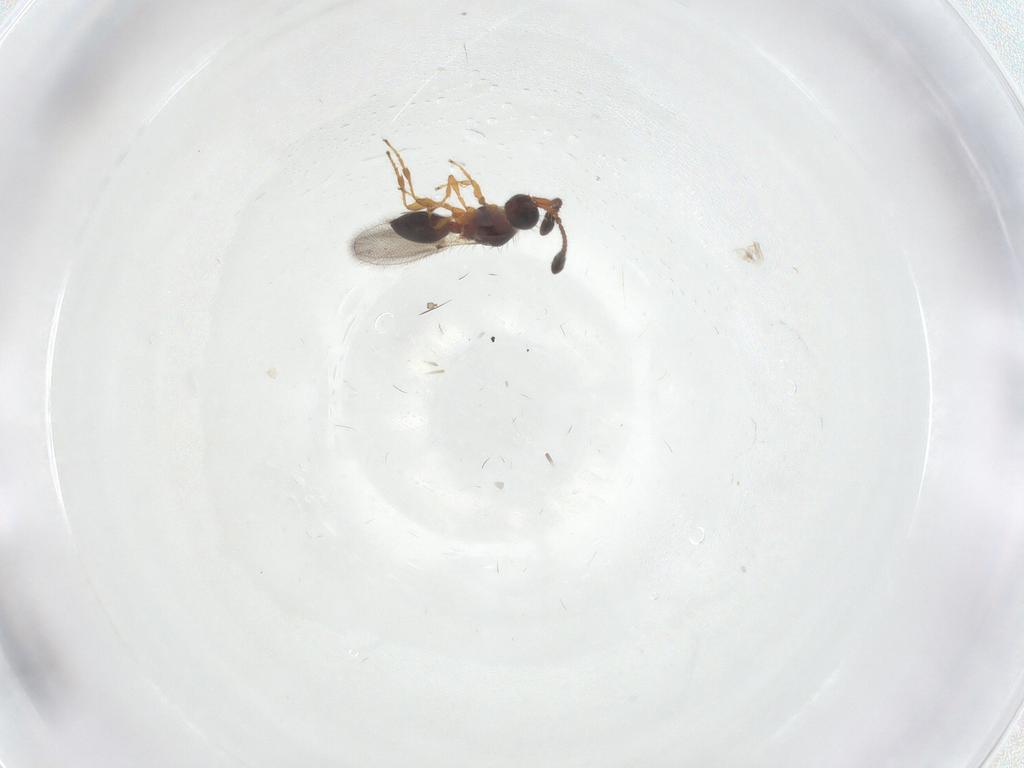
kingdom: Animalia
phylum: Arthropoda
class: Insecta
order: Hymenoptera
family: Diapriidae
